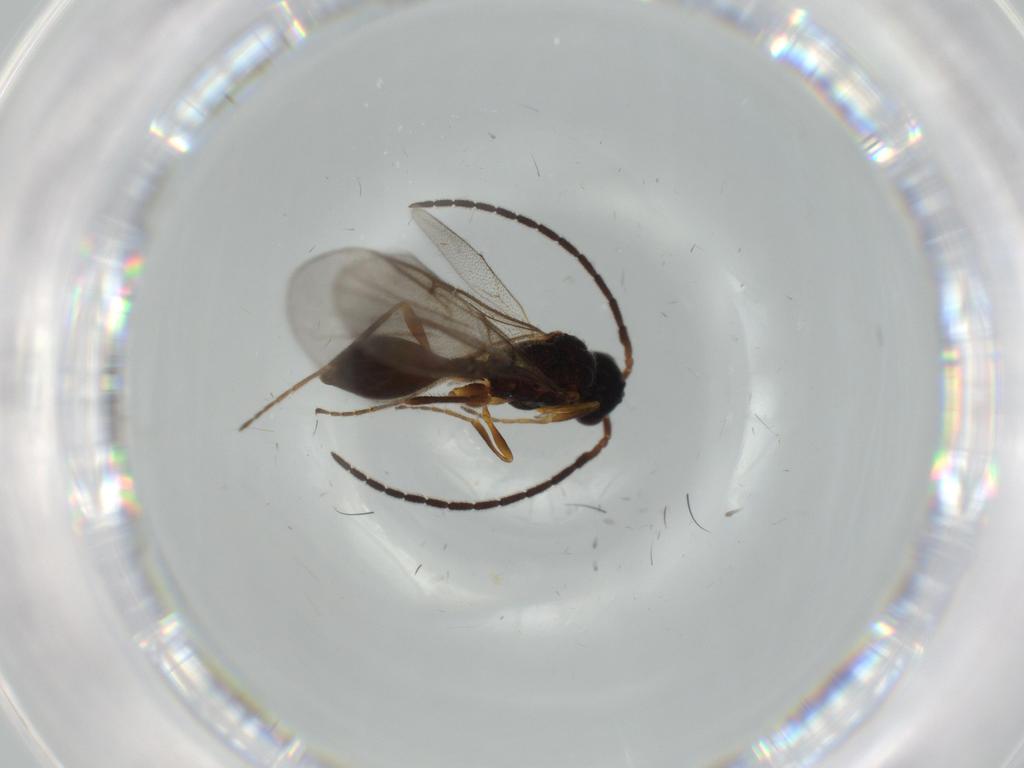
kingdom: Animalia
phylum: Arthropoda
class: Insecta
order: Hymenoptera
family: Diapriidae
